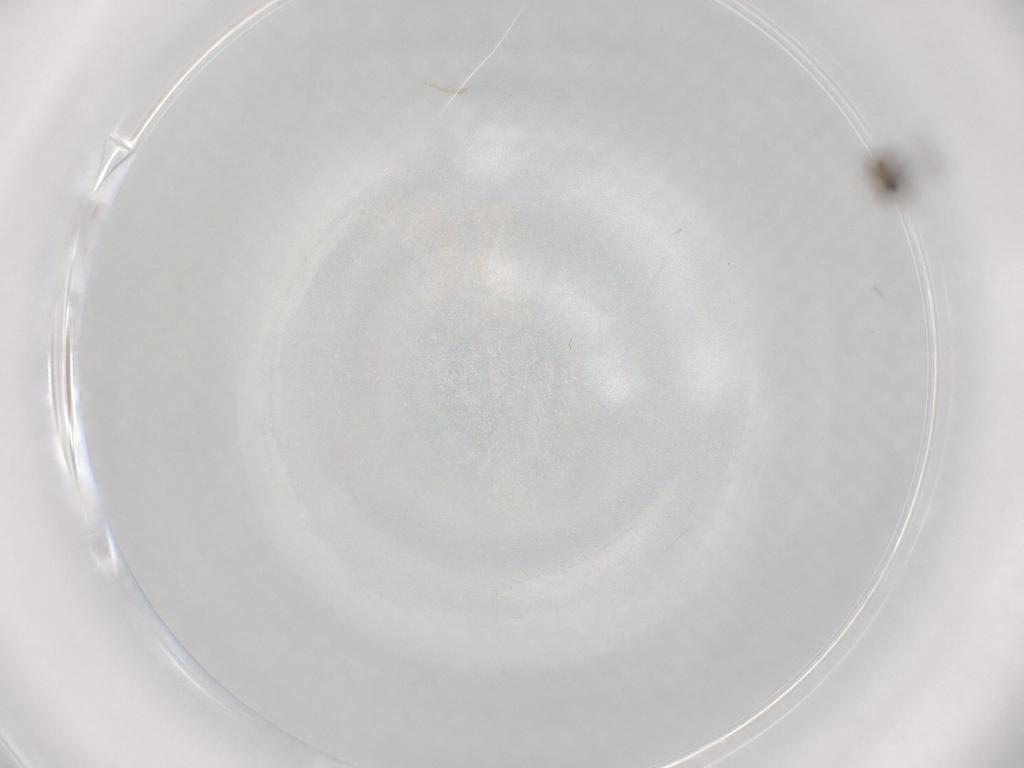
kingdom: Animalia
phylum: Arthropoda
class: Insecta
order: Diptera
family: Cecidomyiidae
